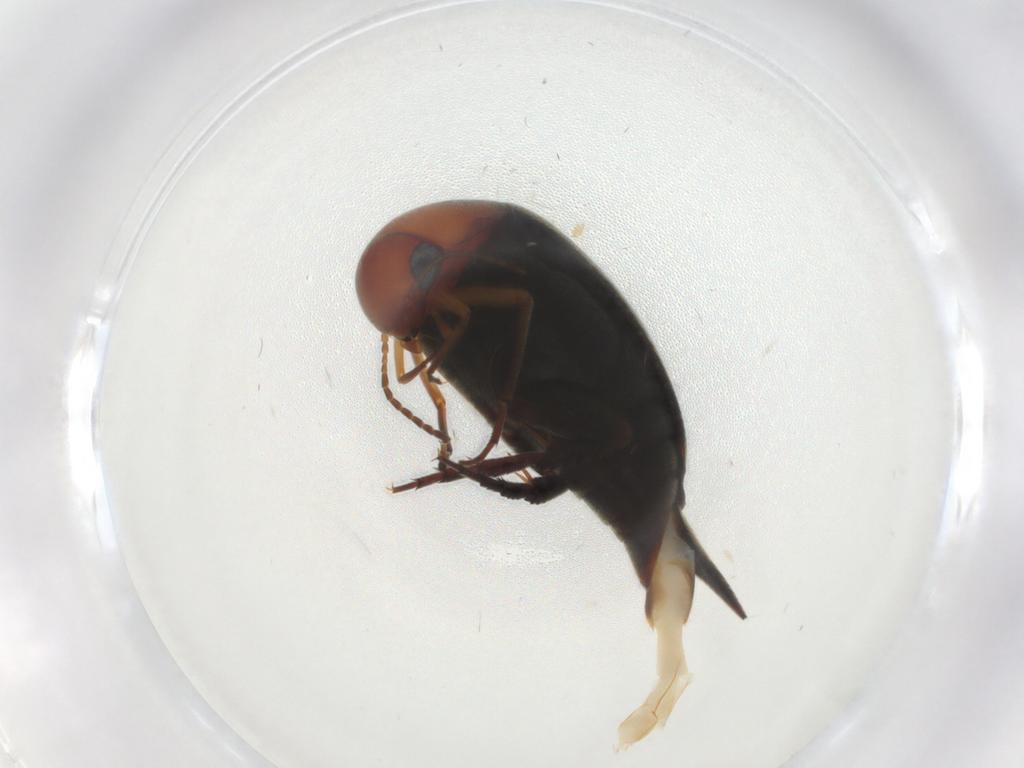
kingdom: Animalia
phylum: Arthropoda
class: Insecta
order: Coleoptera
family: Mordellidae
